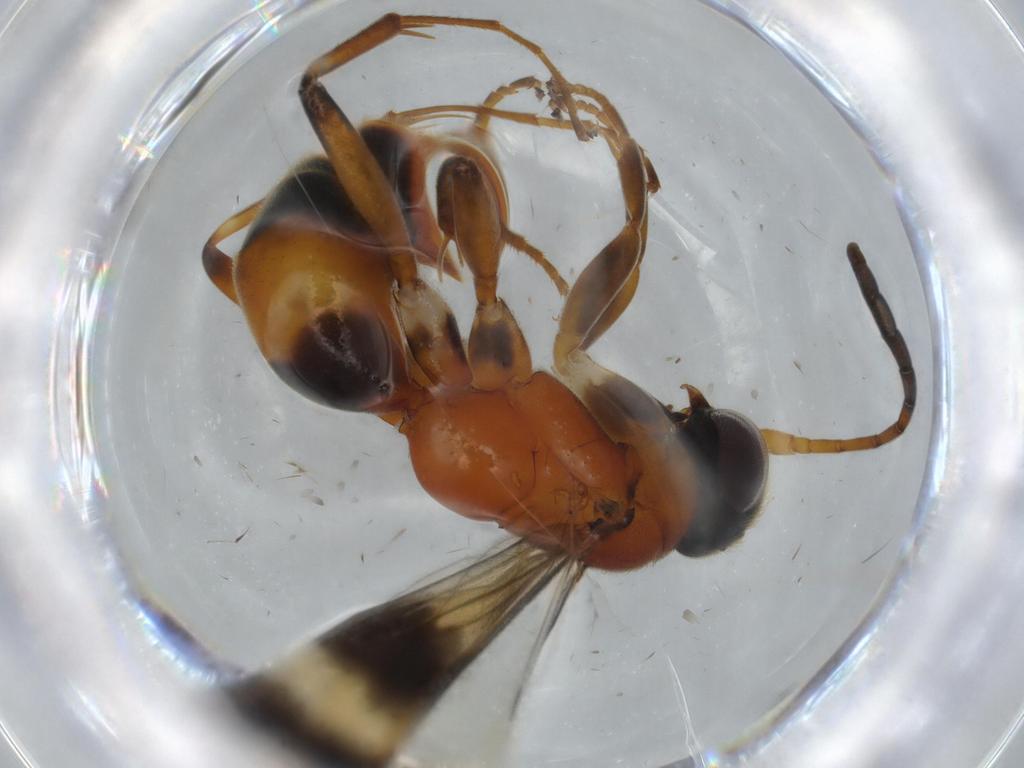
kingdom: Animalia
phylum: Arthropoda
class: Insecta
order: Hymenoptera
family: Pompilidae
